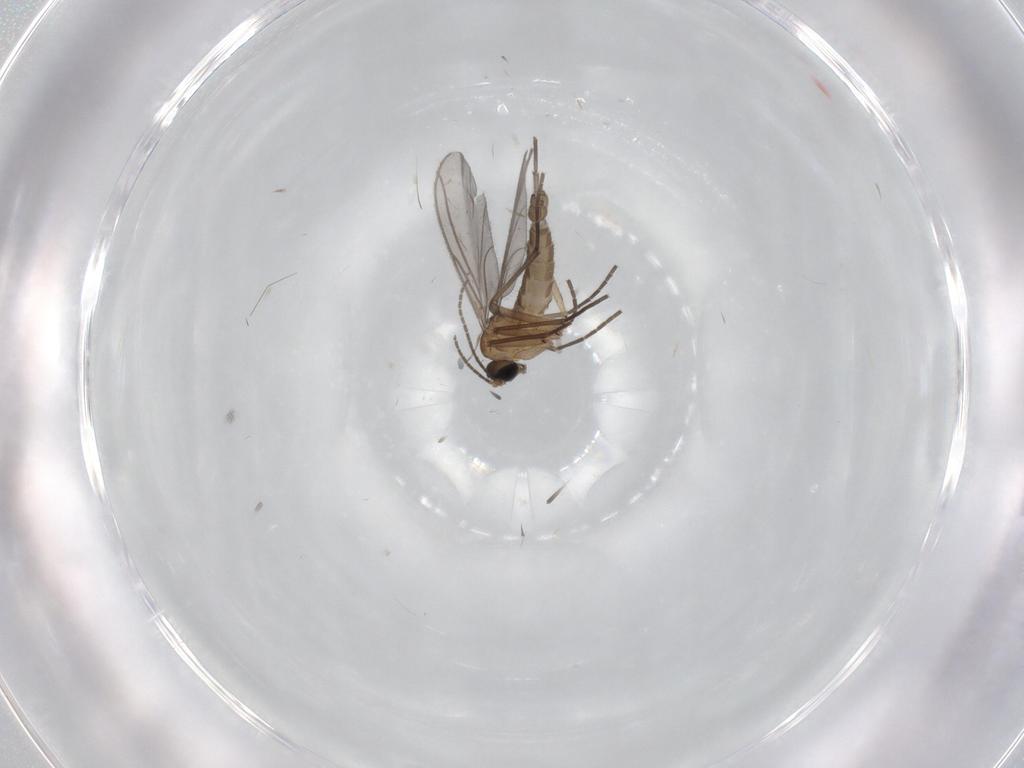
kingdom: Animalia
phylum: Arthropoda
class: Insecta
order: Diptera
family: Sciaridae
